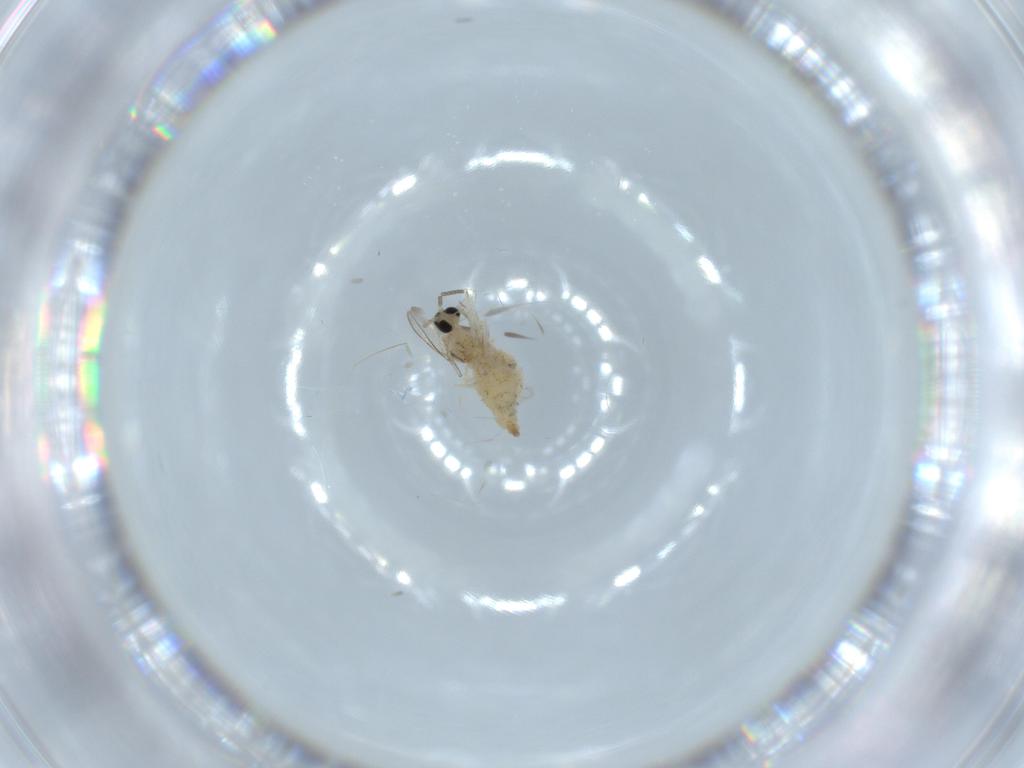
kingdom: Animalia
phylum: Arthropoda
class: Insecta
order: Diptera
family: Cecidomyiidae
